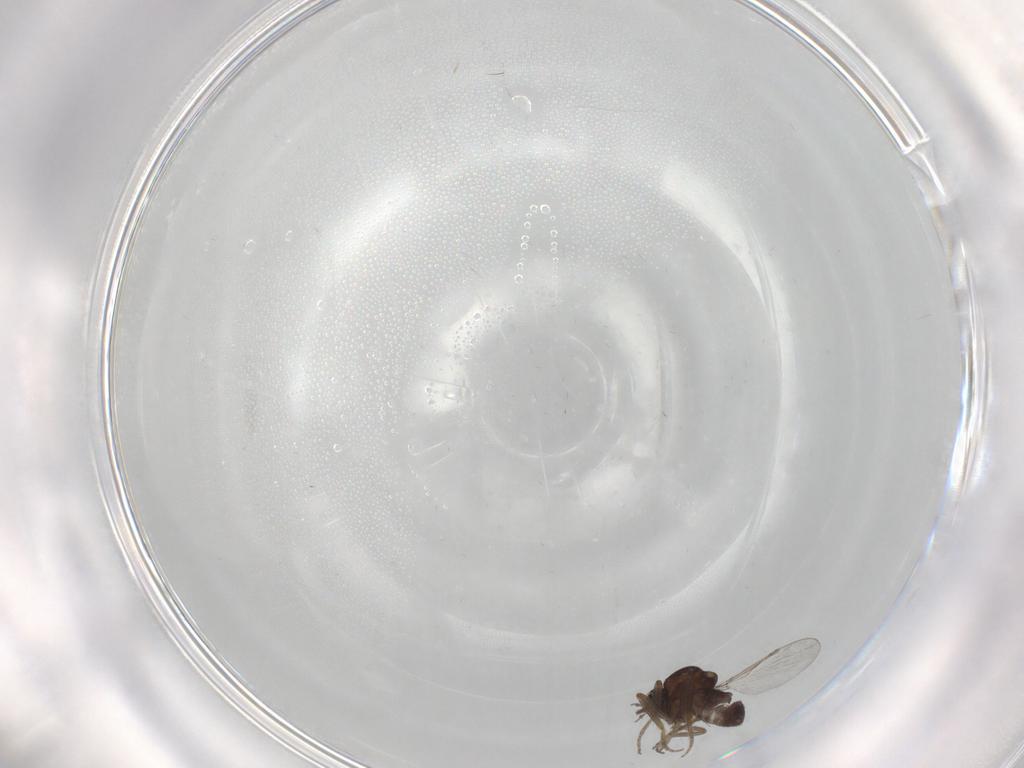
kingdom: Animalia
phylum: Arthropoda
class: Insecta
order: Diptera
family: Ceratopogonidae
